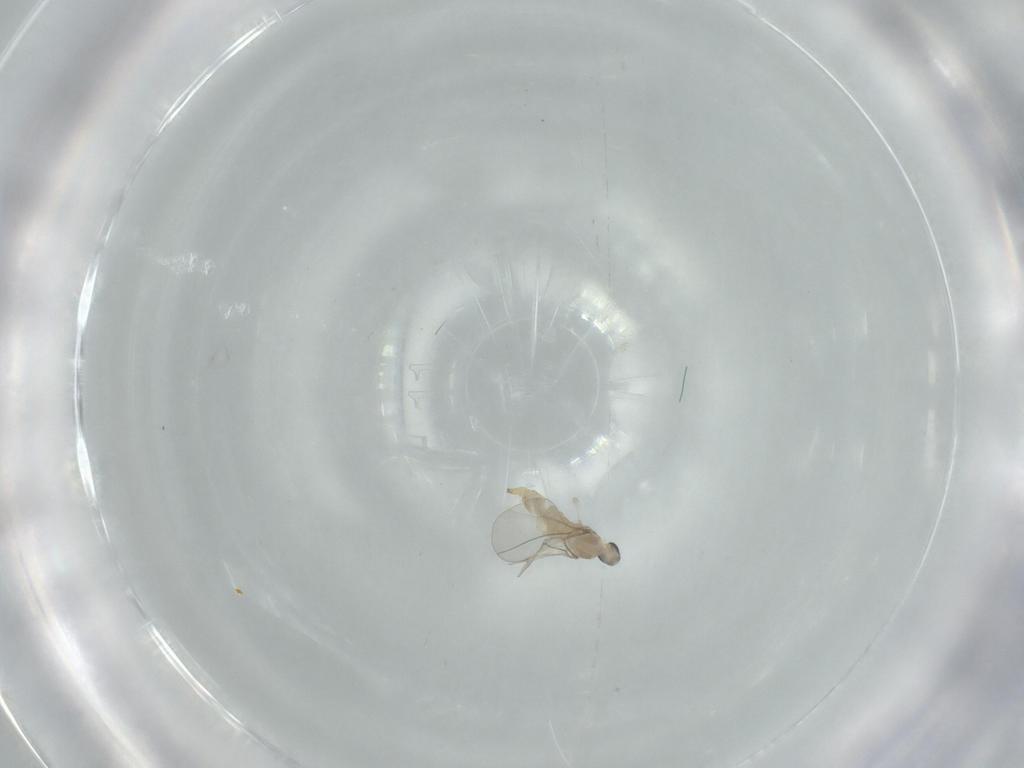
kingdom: Animalia
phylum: Arthropoda
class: Insecta
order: Diptera
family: Cecidomyiidae
